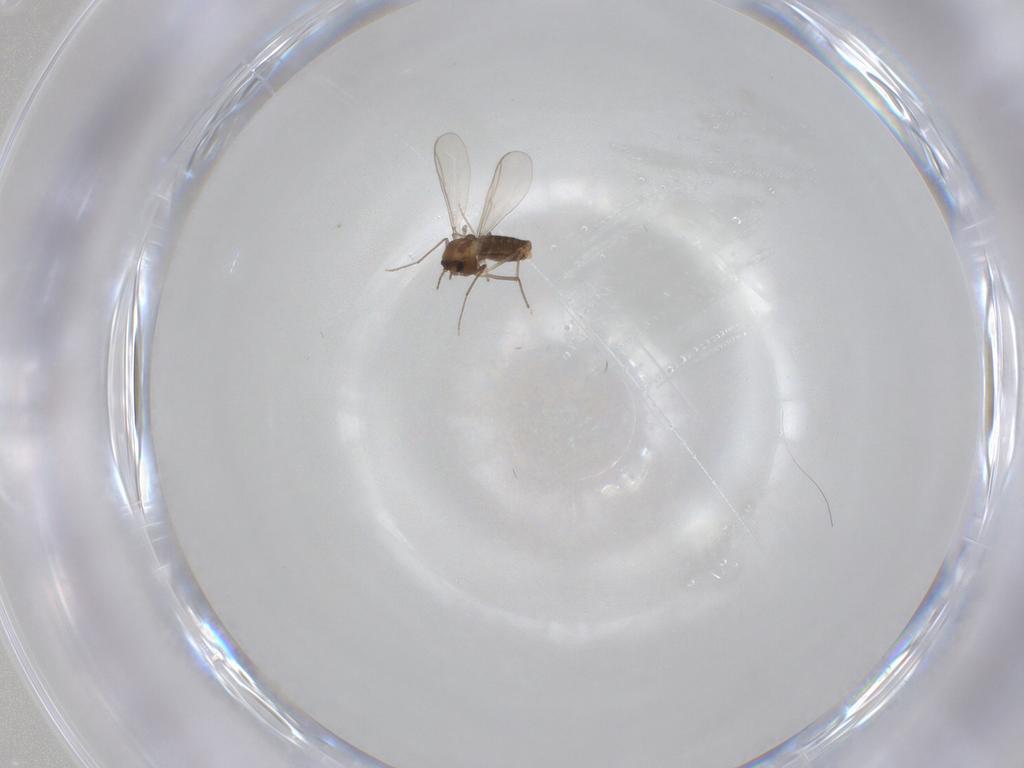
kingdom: Animalia
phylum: Arthropoda
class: Insecta
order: Diptera
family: Chironomidae
